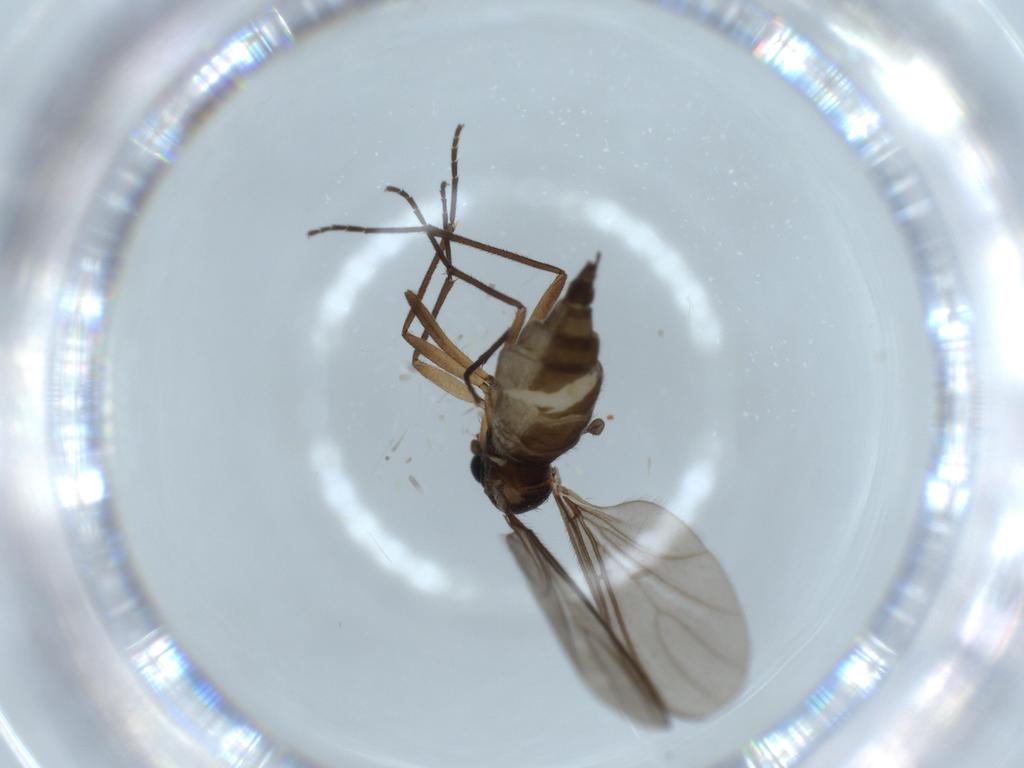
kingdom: Animalia
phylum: Arthropoda
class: Insecta
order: Diptera
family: Sciaridae
